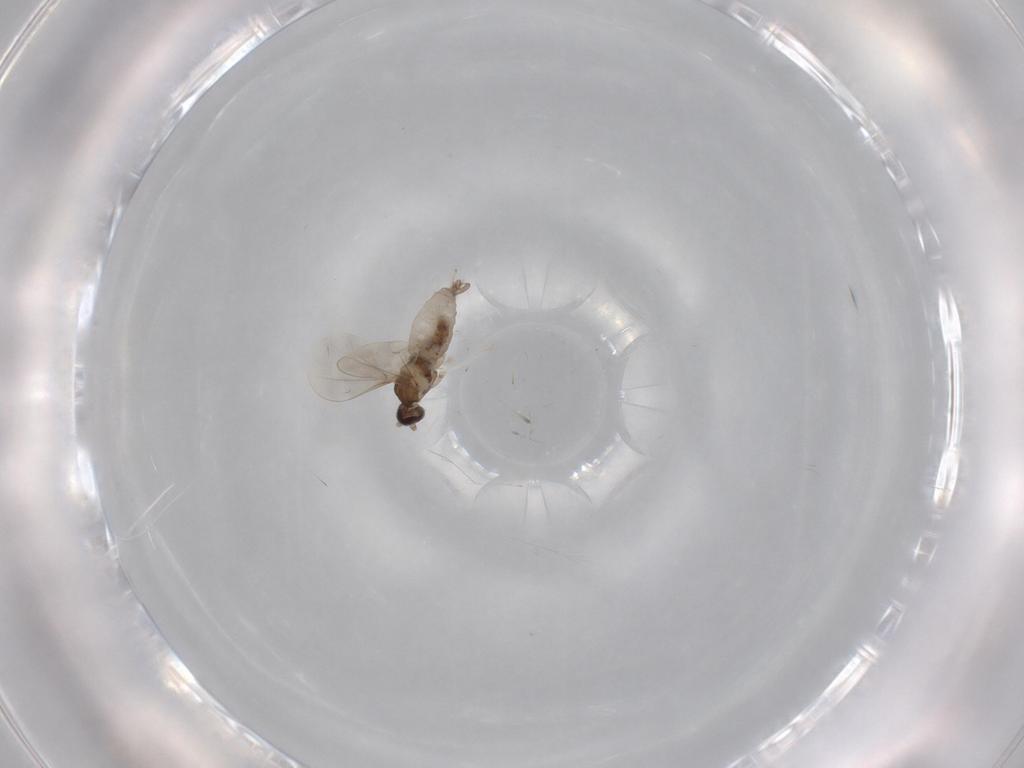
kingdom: Animalia
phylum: Arthropoda
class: Insecta
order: Diptera
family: Cecidomyiidae
